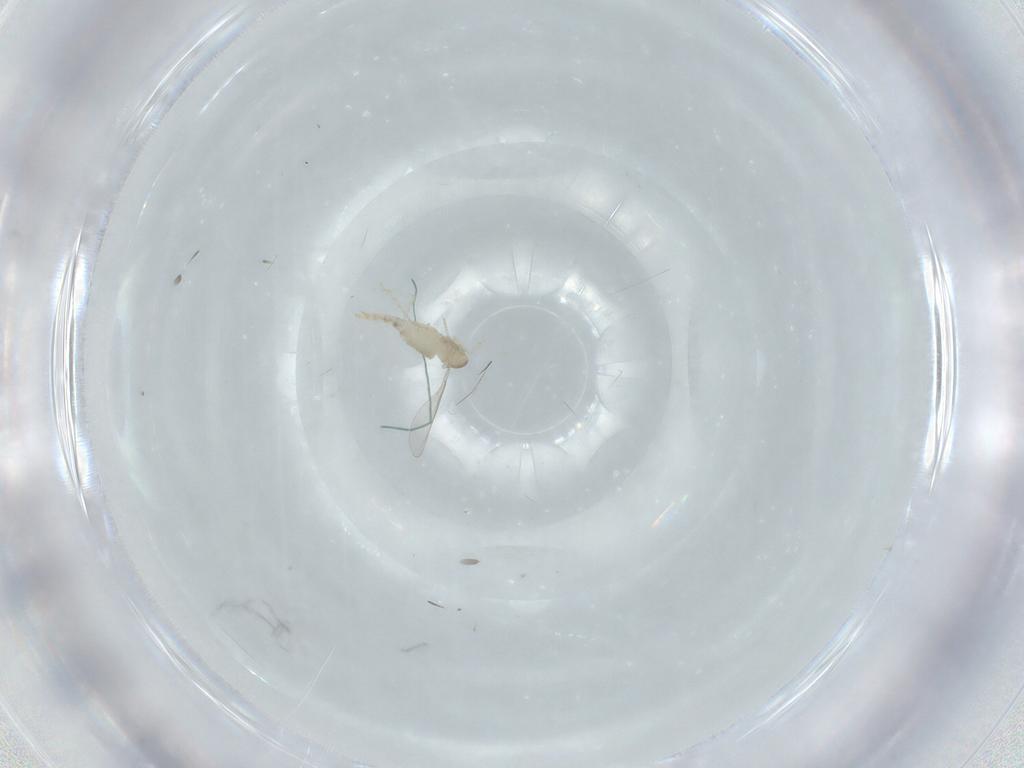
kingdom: Animalia
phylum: Arthropoda
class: Insecta
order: Diptera
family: Cecidomyiidae
